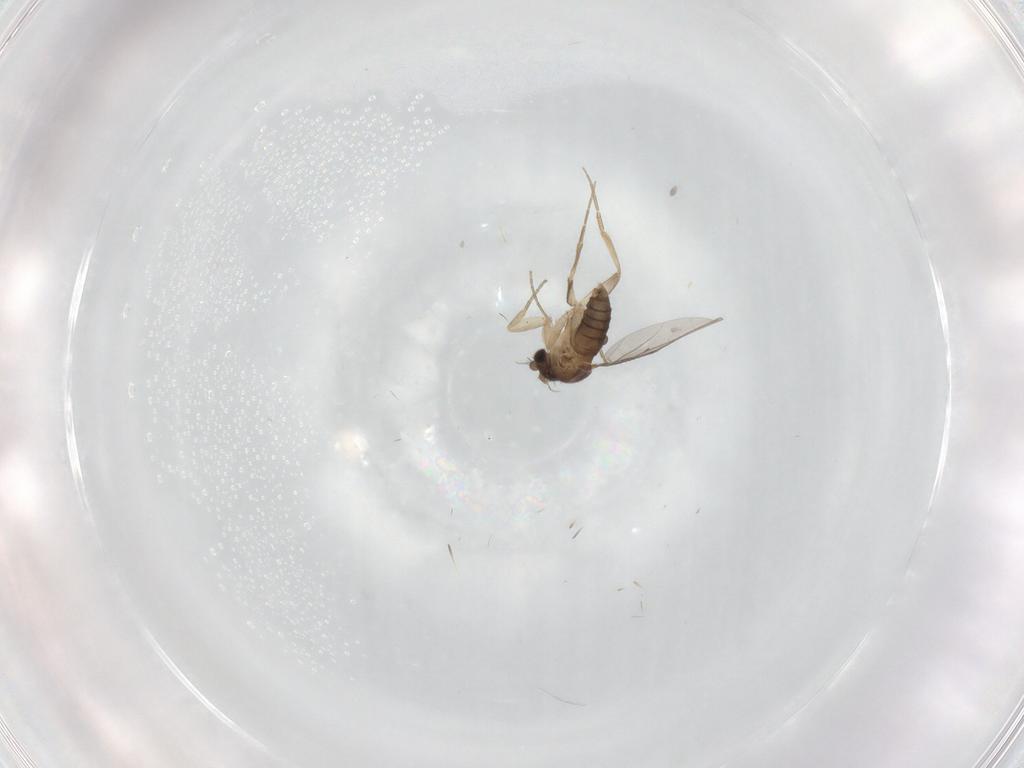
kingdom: Animalia
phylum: Arthropoda
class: Insecta
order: Diptera
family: Phoridae
